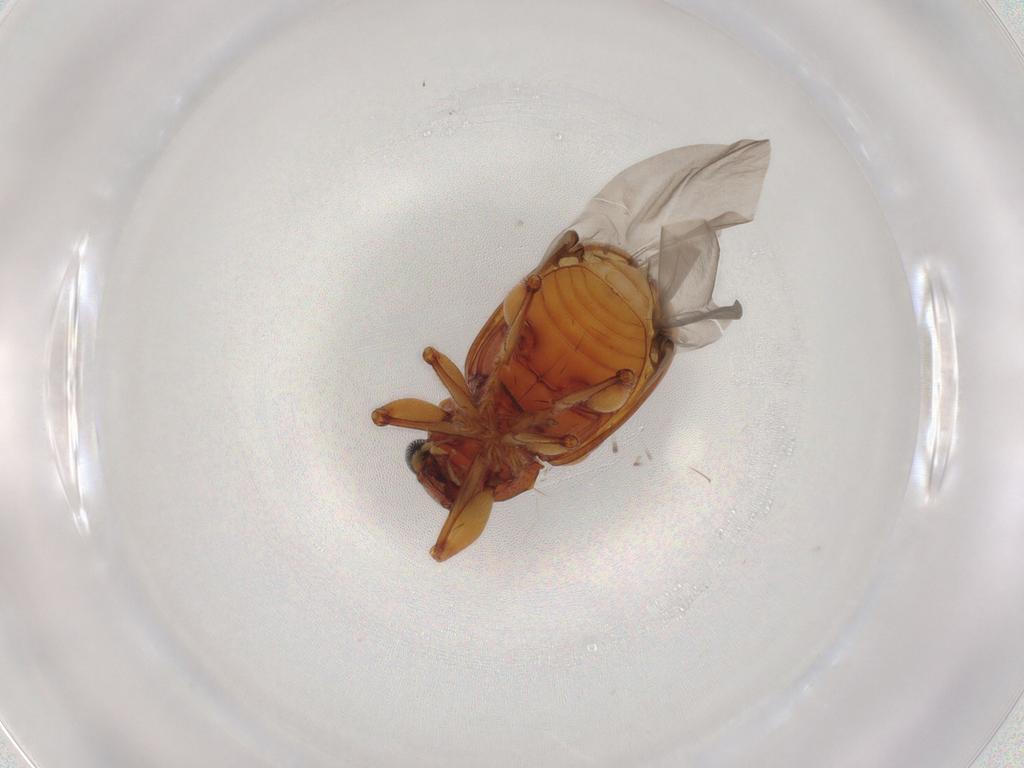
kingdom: Animalia
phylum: Arthropoda
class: Insecta
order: Coleoptera
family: Chrysomelidae
